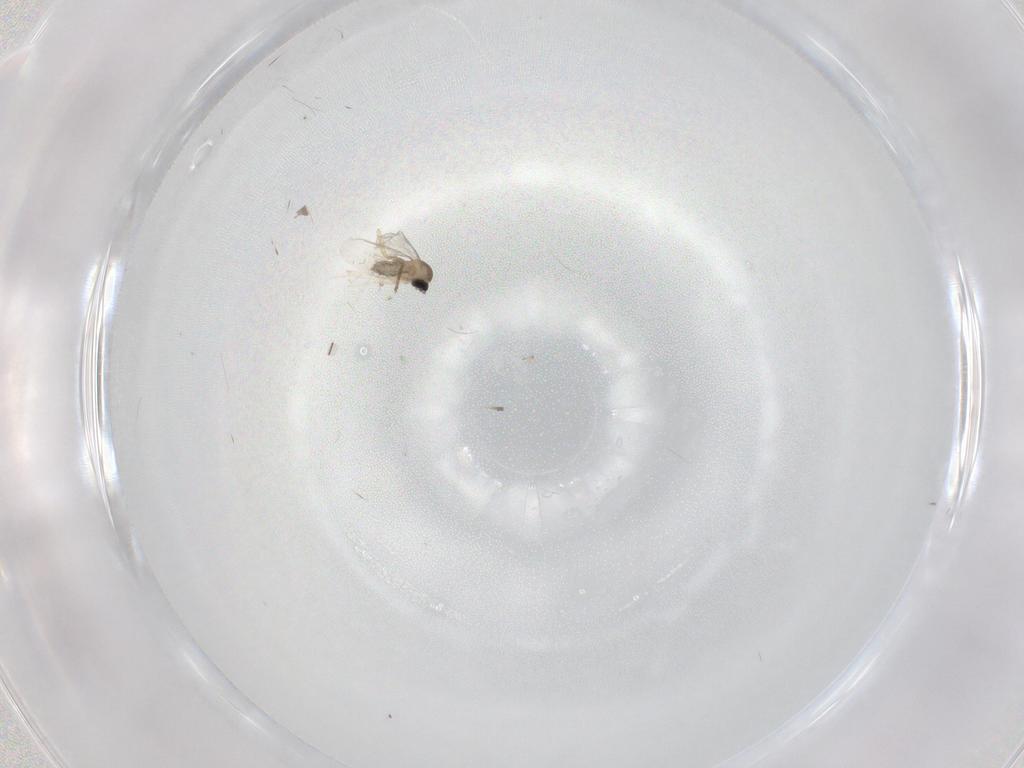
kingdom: Animalia
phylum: Arthropoda
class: Insecta
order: Diptera
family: Cecidomyiidae
